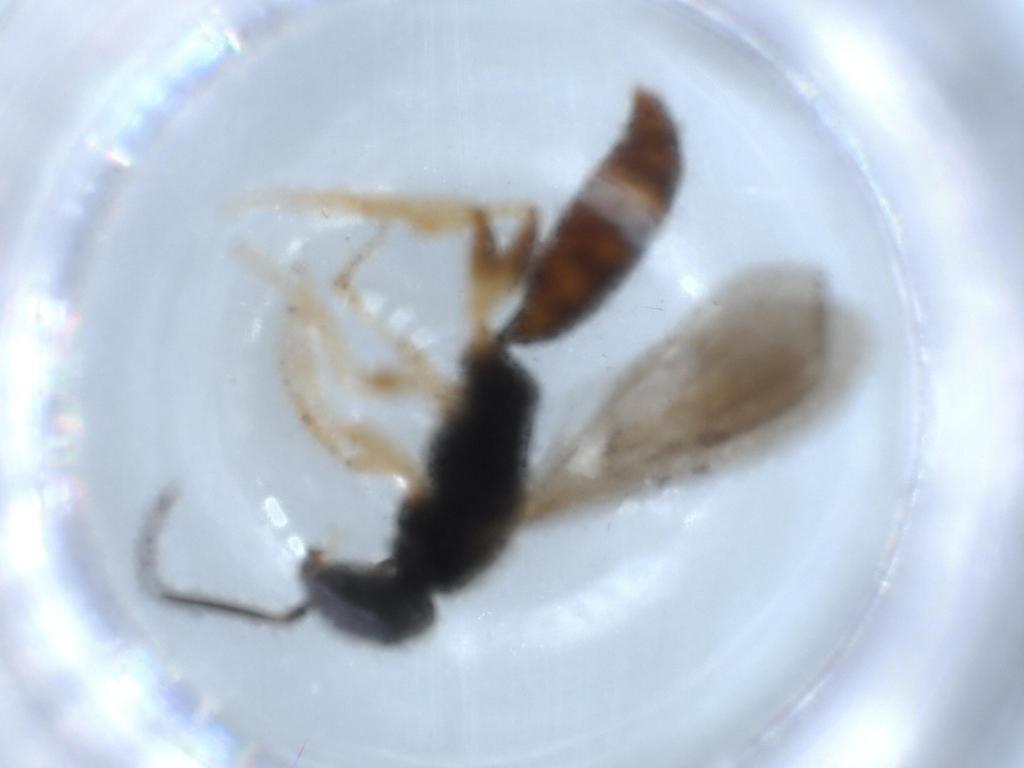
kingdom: Animalia
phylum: Arthropoda
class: Insecta
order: Hymenoptera
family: Bethylidae
